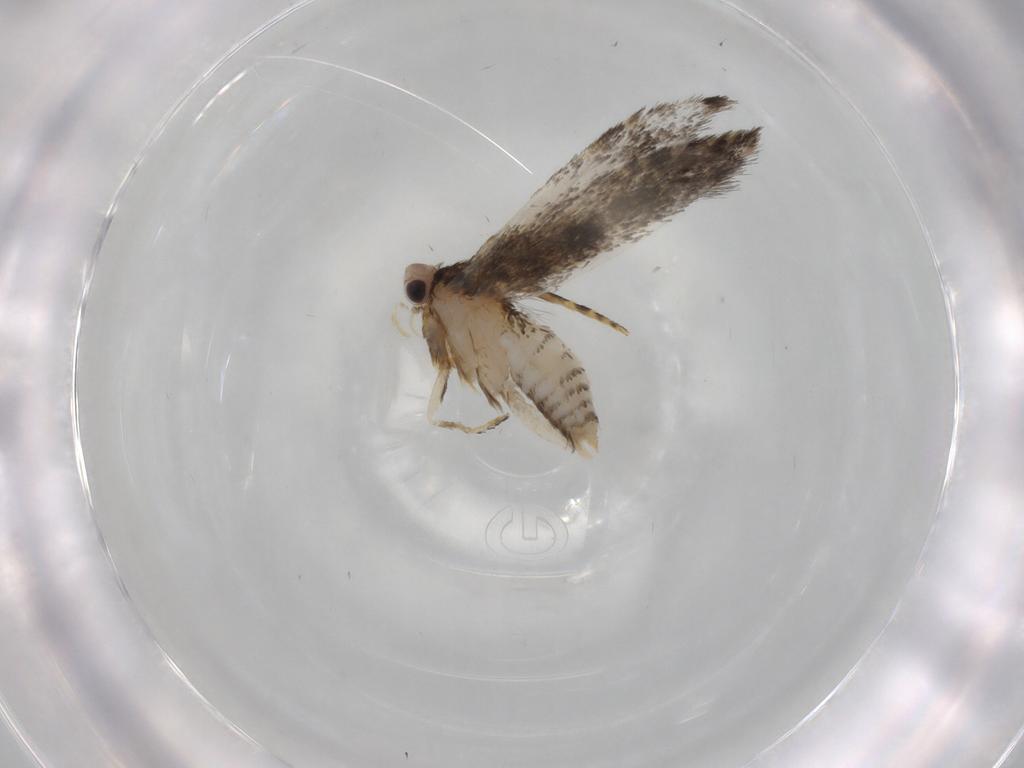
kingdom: Animalia
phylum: Arthropoda
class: Insecta
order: Lepidoptera
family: Tineidae
